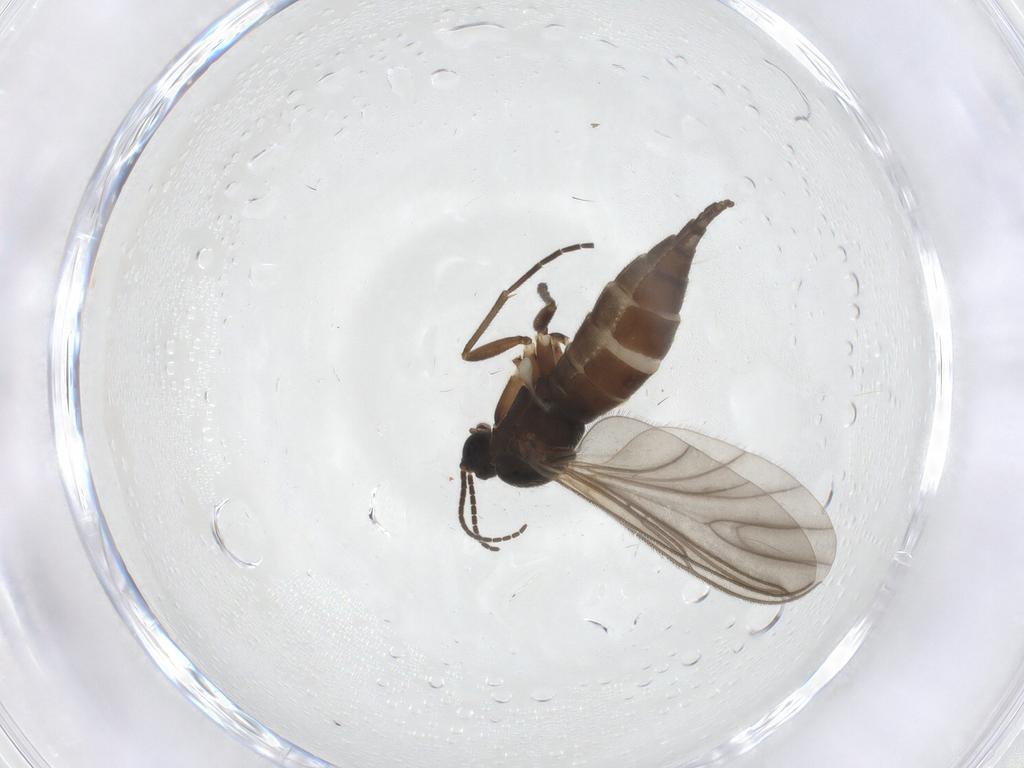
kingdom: Animalia
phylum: Arthropoda
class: Insecta
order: Diptera
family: Sciaridae
